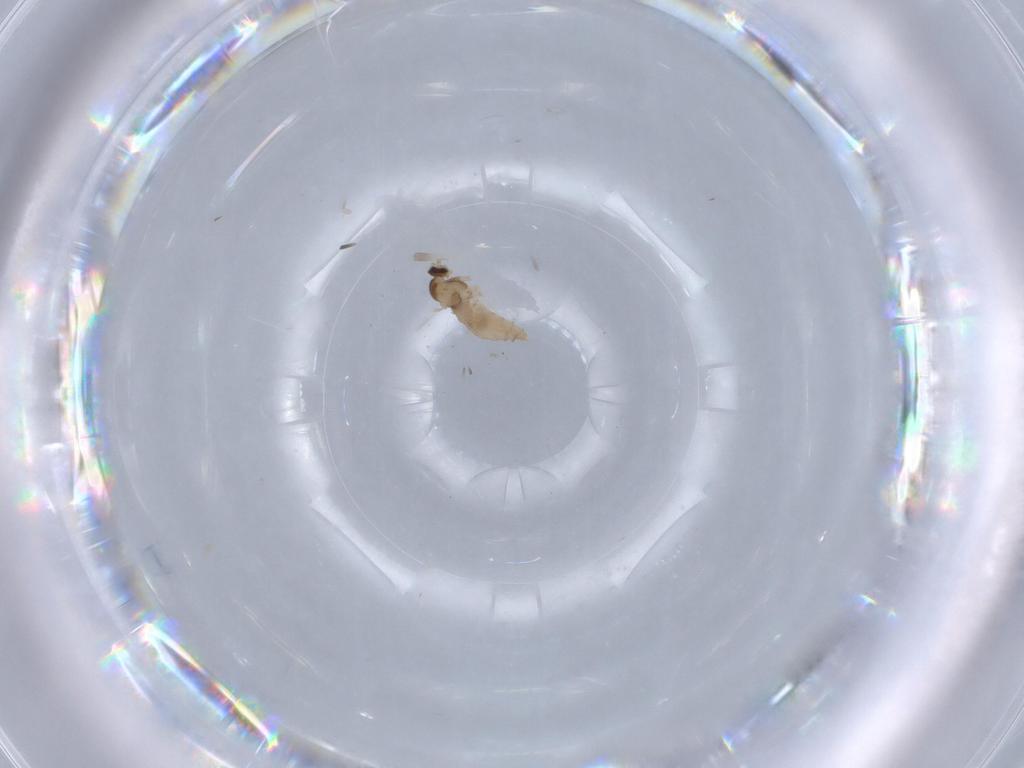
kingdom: Animalia
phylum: Arthropoda
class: Insecta
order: Diptera
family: Cecidomyiidae
